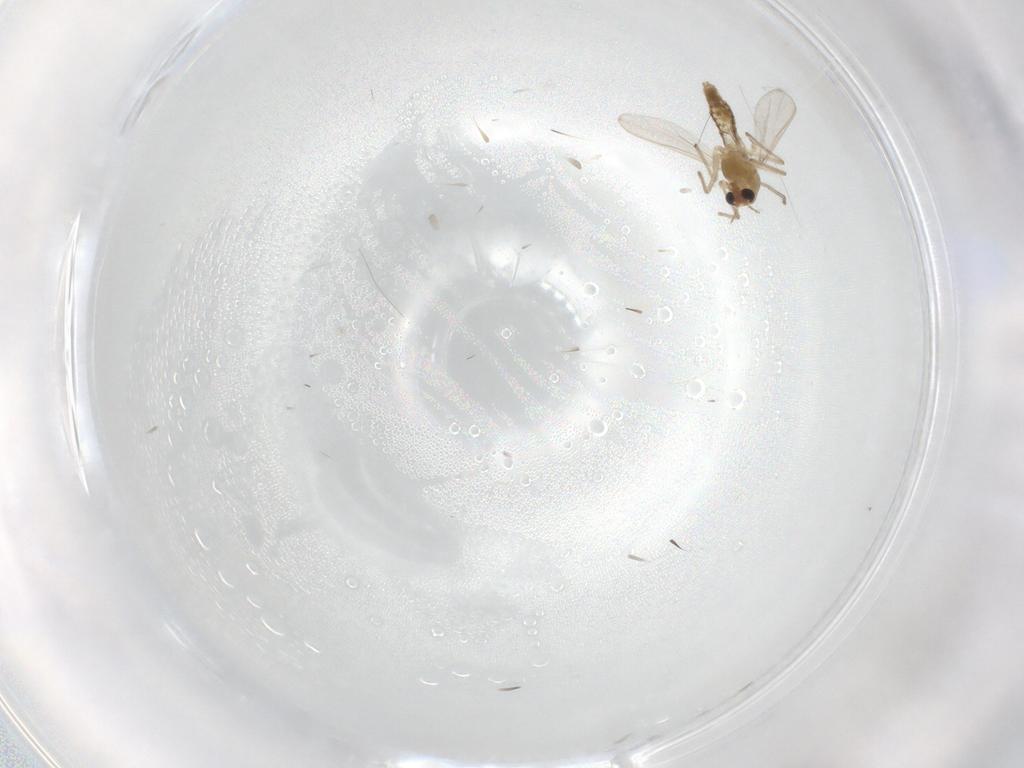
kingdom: Animalia
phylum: Arthropoda
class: Insecta
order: Diptera
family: Chironomidae
